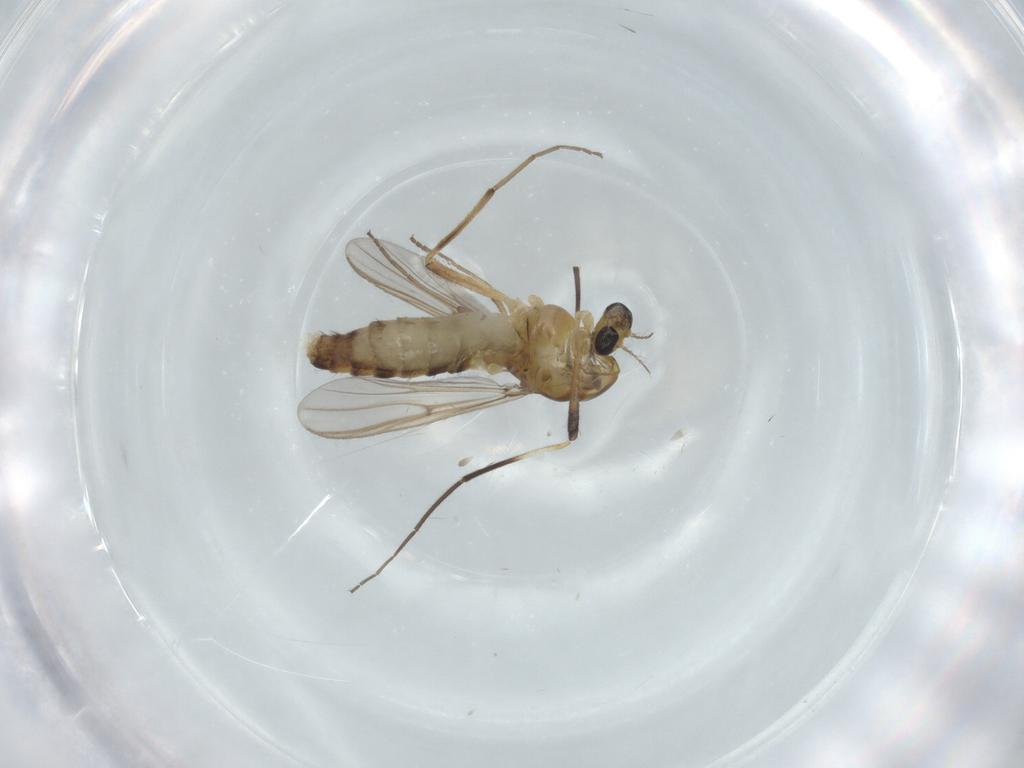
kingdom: Animalia
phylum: Arthropoda
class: Insecta
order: Diptera
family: Chironomidae
